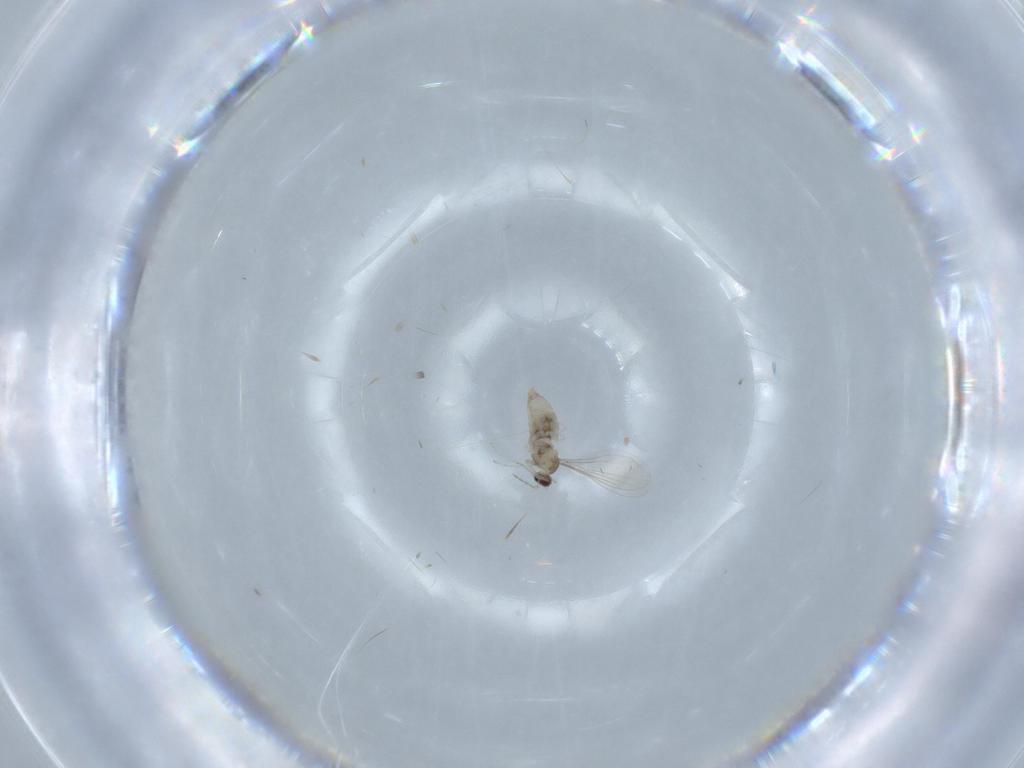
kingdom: Animalia
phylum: Arthropoda
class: Insecta
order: Diptera
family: Cecidomyiidae
